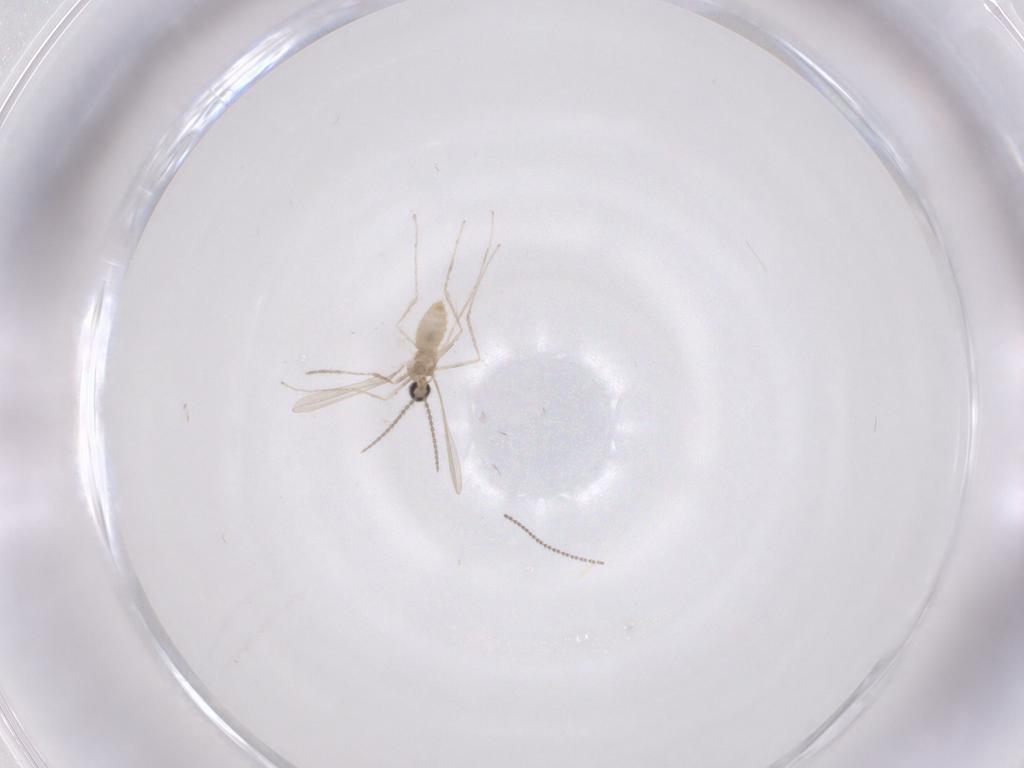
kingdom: Animalia
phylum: Arthropoda
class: Insecta
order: Diptera
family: Cecidomyiidae
